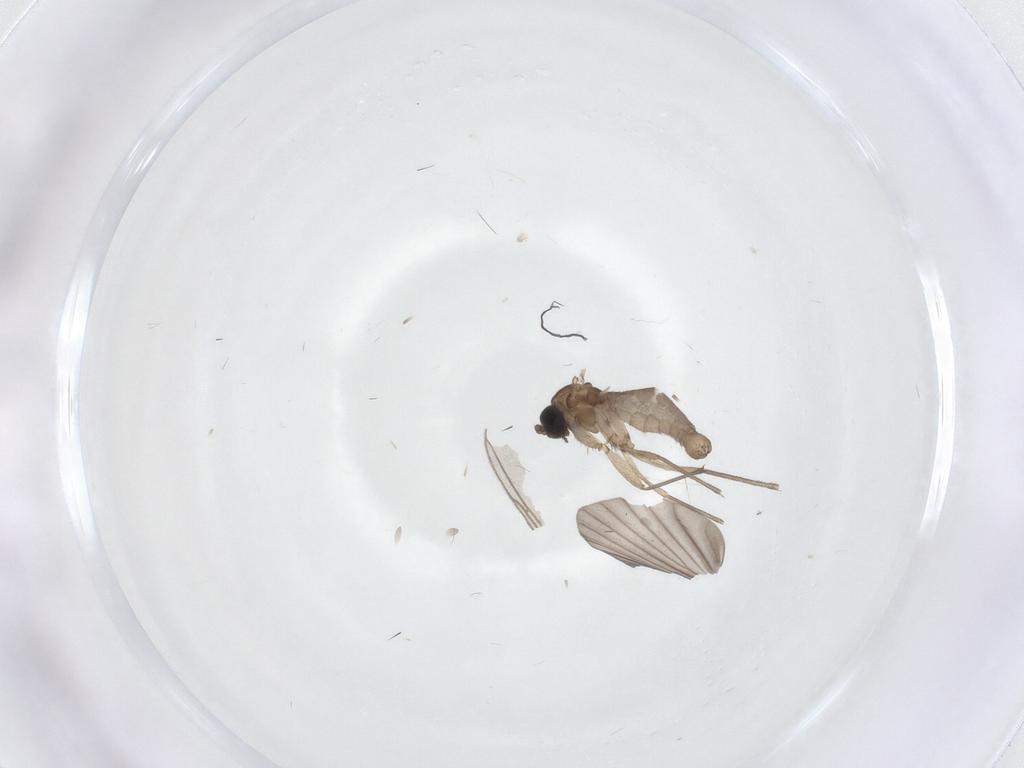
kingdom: Animalia
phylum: Arthropoda
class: Insecta
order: Diptera
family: Sciaridae
